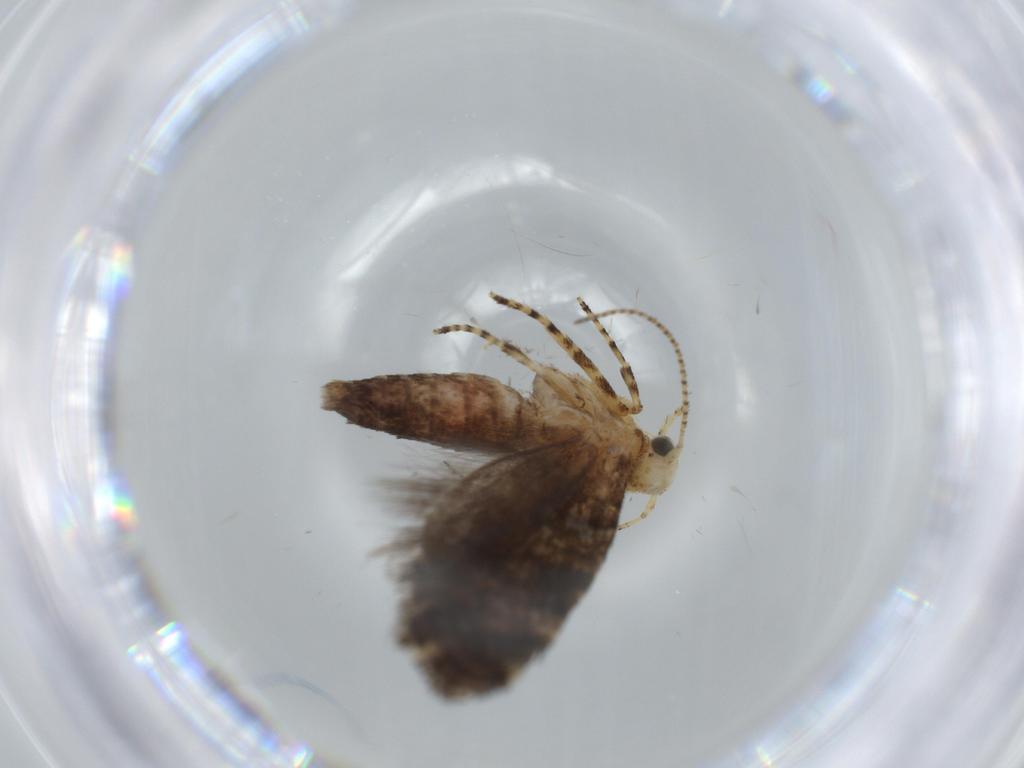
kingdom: Animalia
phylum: Arthropoda
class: Insecta
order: Lepidoptera
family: Glyphipterigidae
